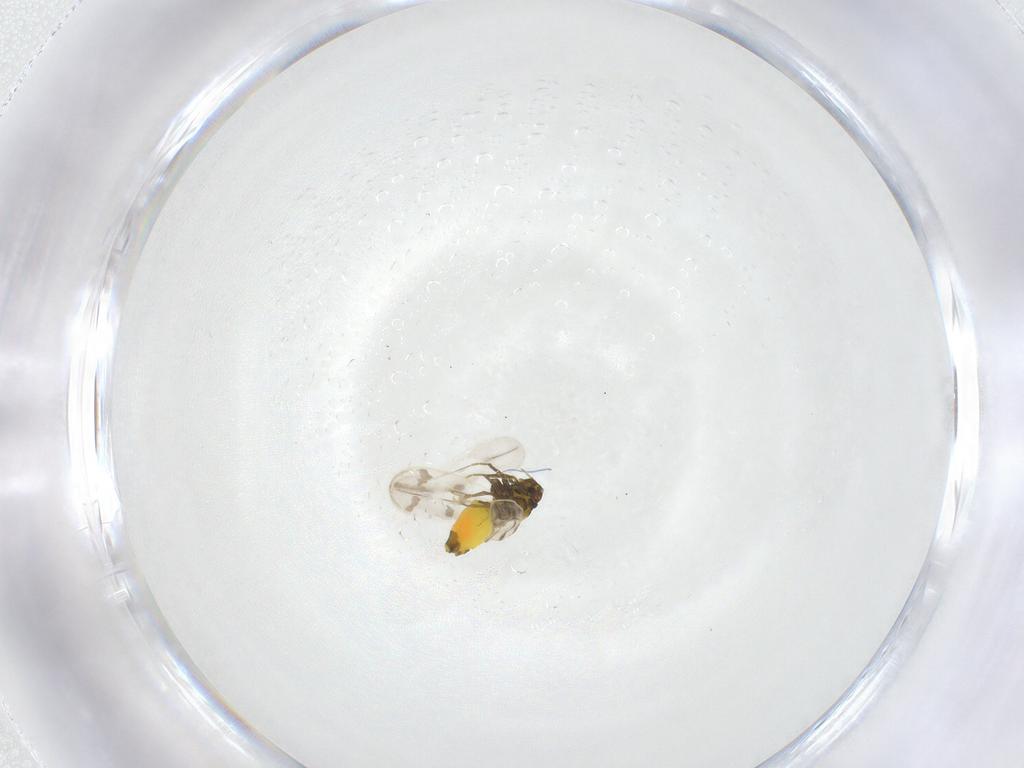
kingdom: Animalia
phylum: Arthropoda
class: Insecta
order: Hemiptera
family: Aleyrodidae
